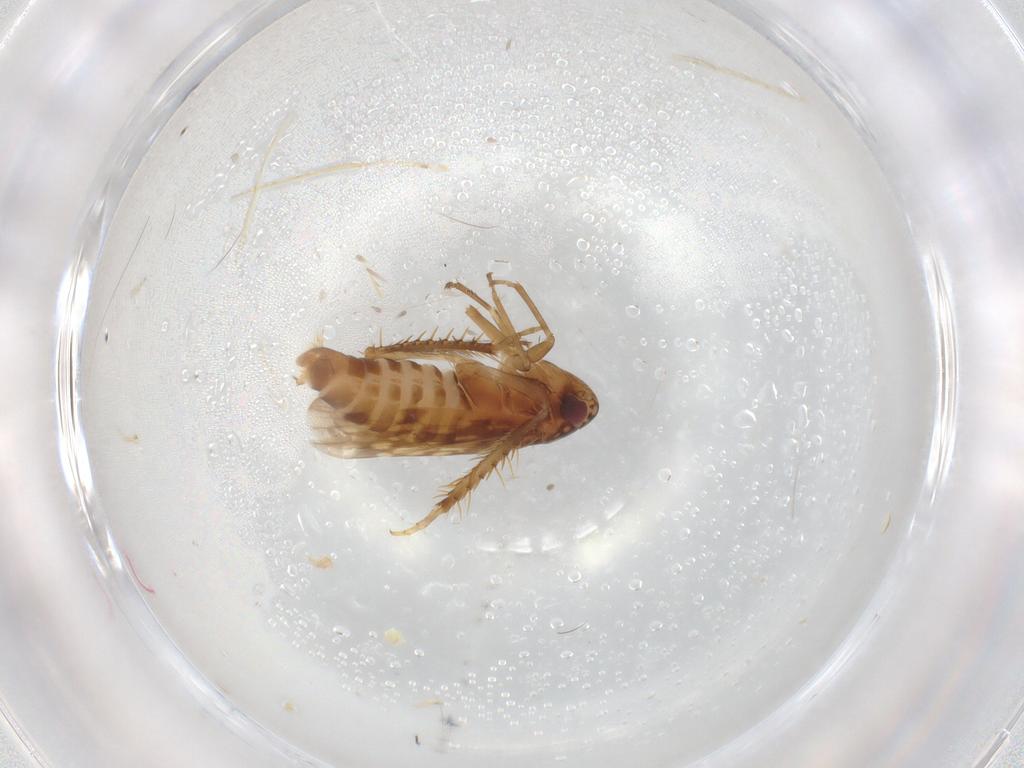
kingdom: Animalia
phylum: Arthropoda
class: Insecta
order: Hemiptera
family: Cicadellidae
